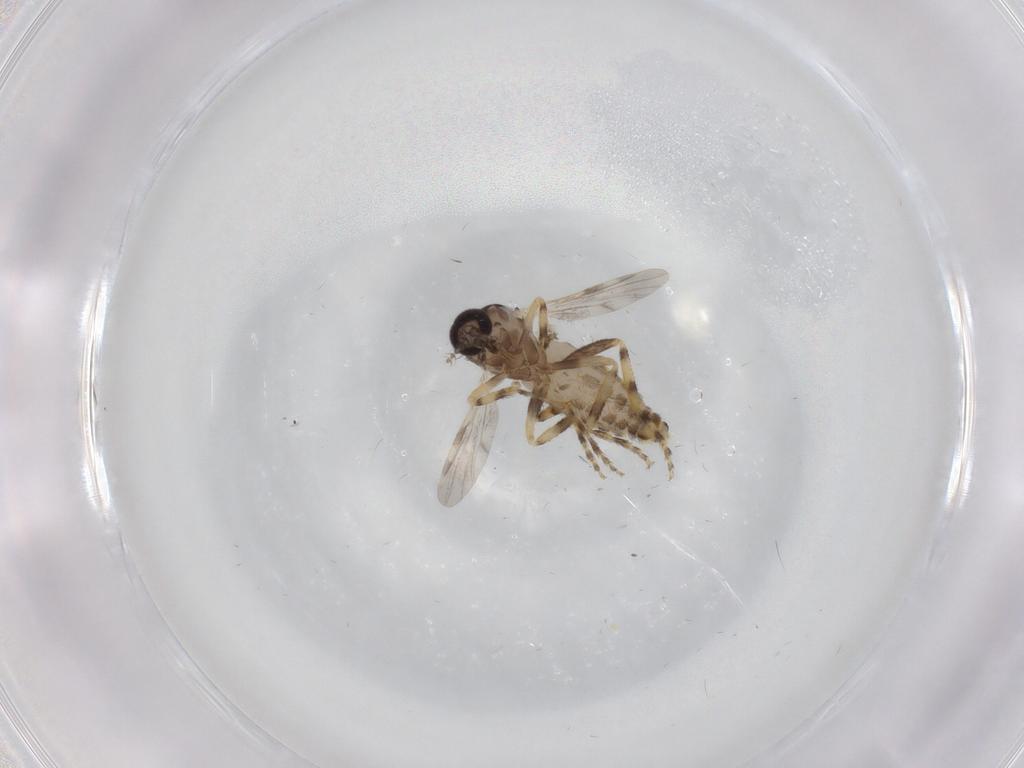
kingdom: Animalia
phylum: Arthropoda
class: Insecta
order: Diptera
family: Ceratopogonidae
